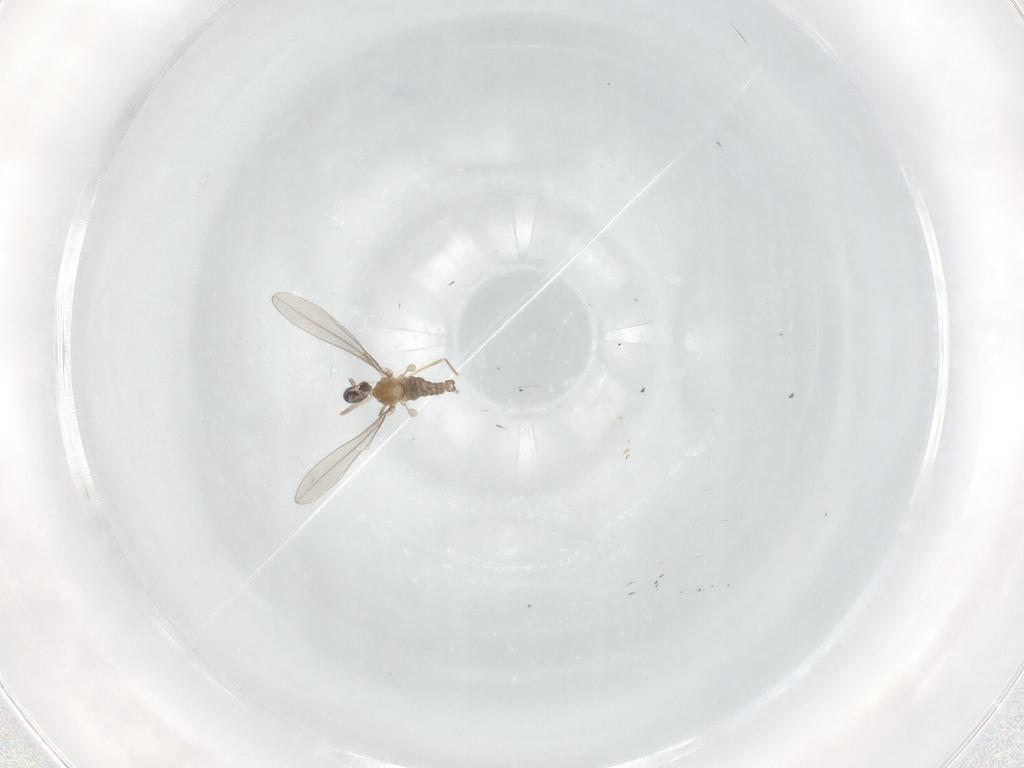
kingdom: Animalia
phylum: Arthropoda
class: Insecta
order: Diptera
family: Cecidomyiidae
